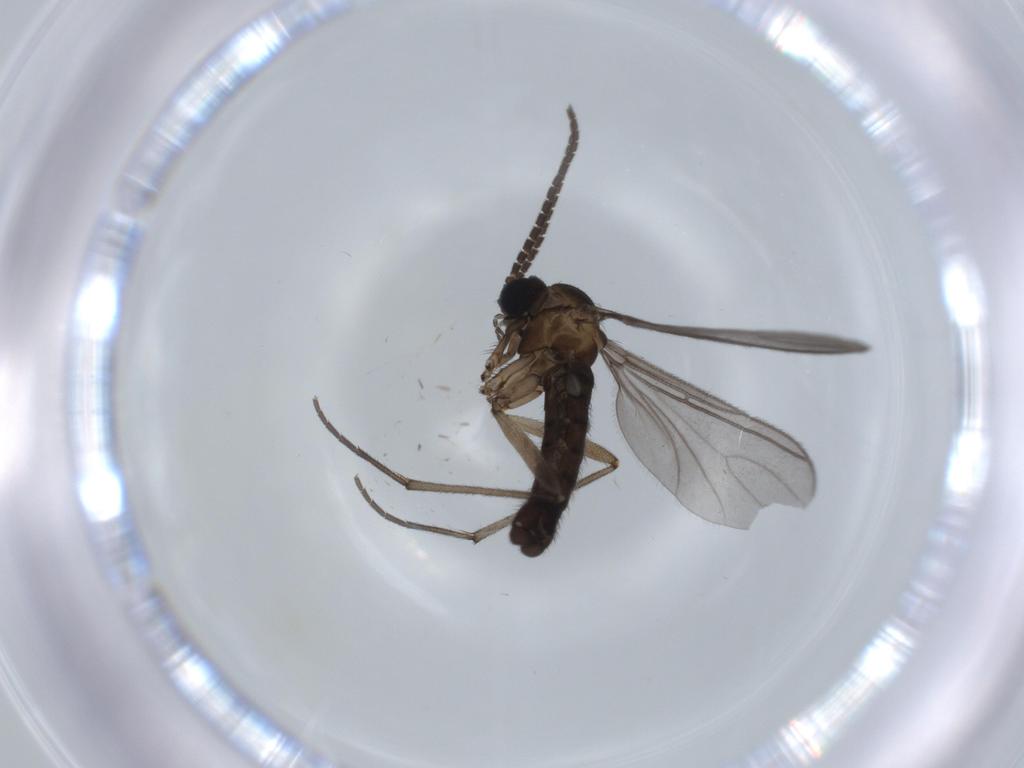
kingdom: Animalia
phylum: Arthropoda
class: Insecta
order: Diptera
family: Sciaridae
